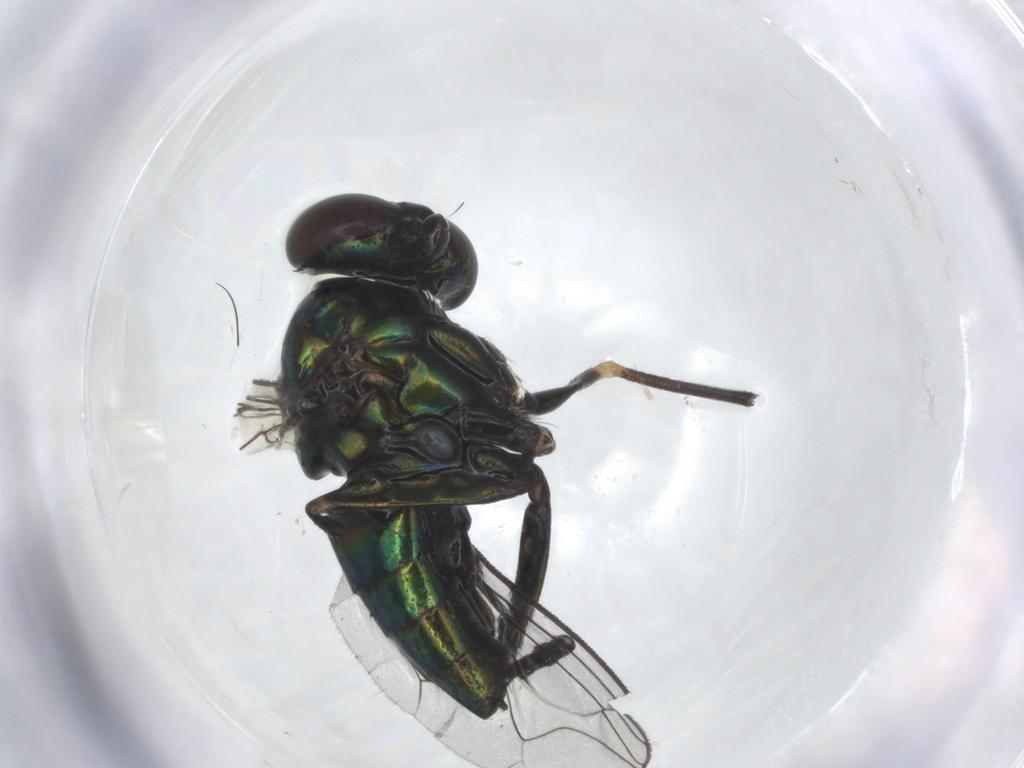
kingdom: Animalia
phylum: Arthropoda
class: Insecta
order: Diptera
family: Dolichopodidae
